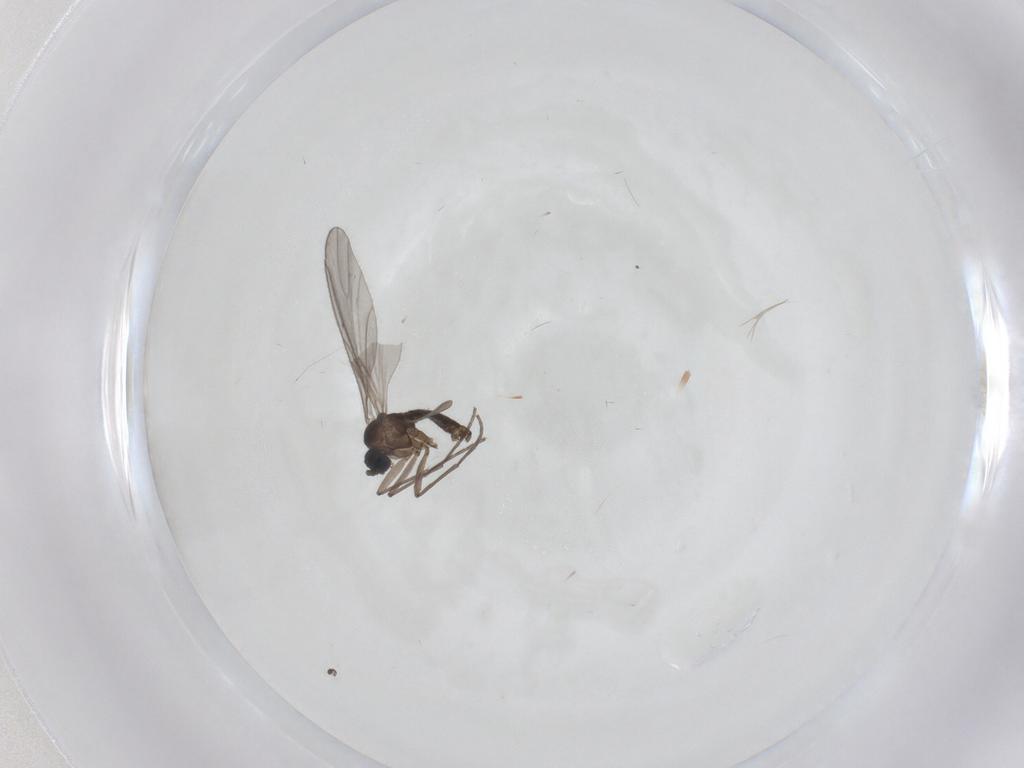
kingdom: Animalia
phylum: Arthropoda
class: Insecta
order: Diptera
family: Sciaridae
